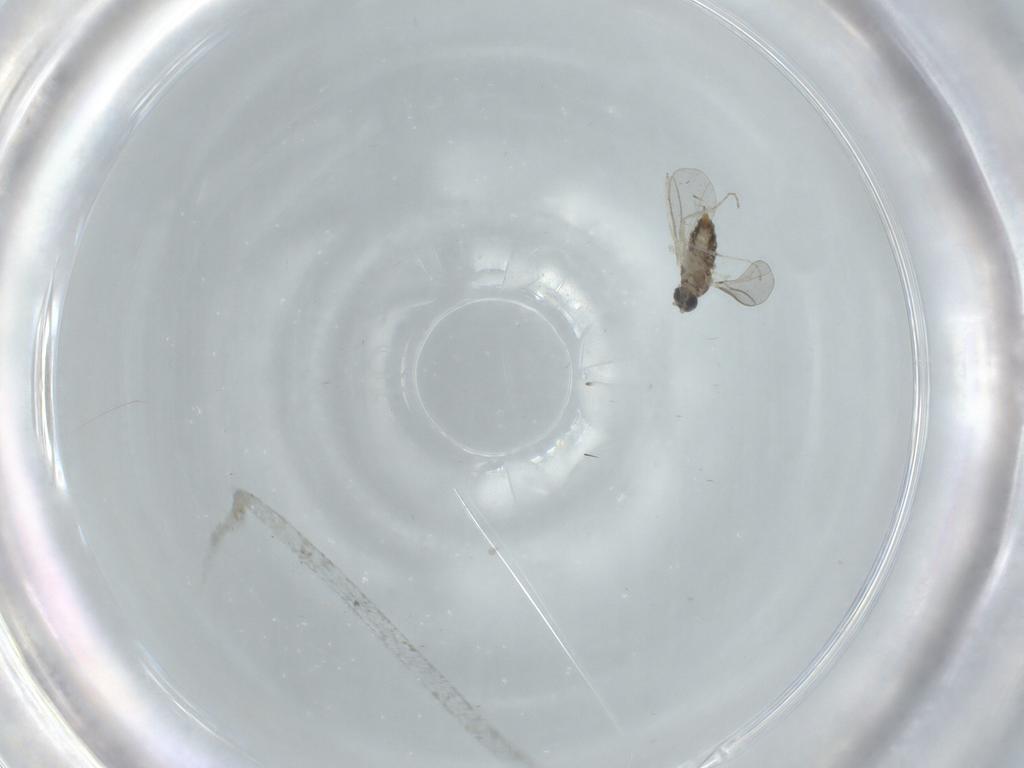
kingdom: Animalia
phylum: Arthropoda
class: Insecta
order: Diptera
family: Cecidomyiidae
